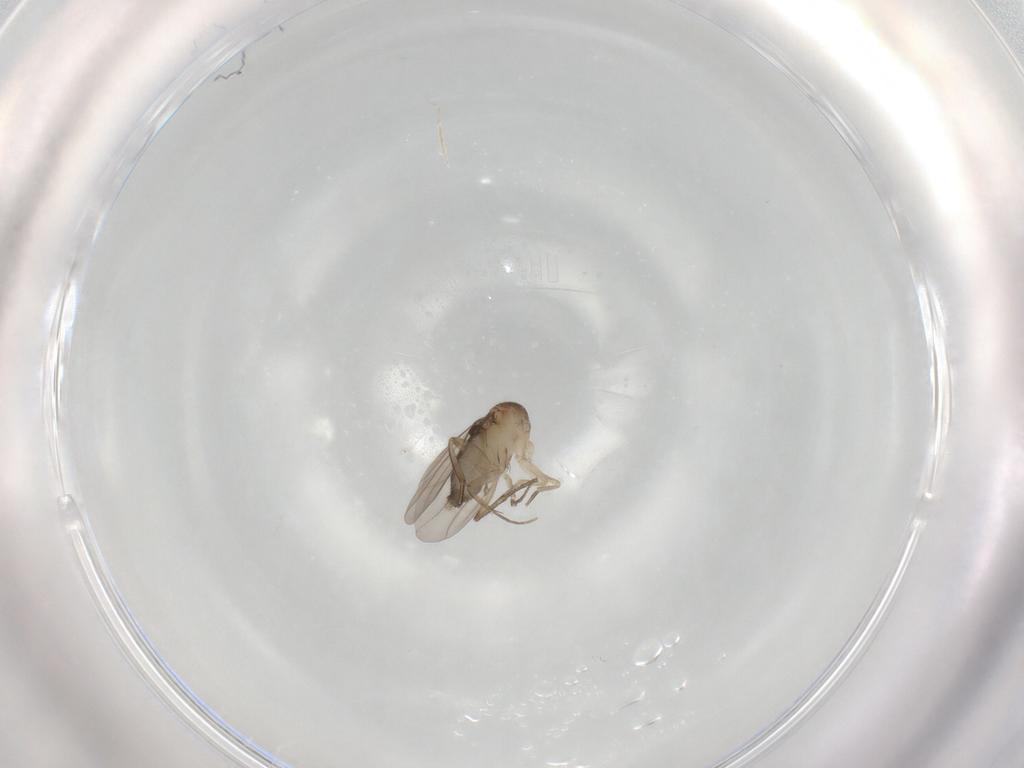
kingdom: Animalia
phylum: Arthropoda
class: Insecta
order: Diptera
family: Phoridae
